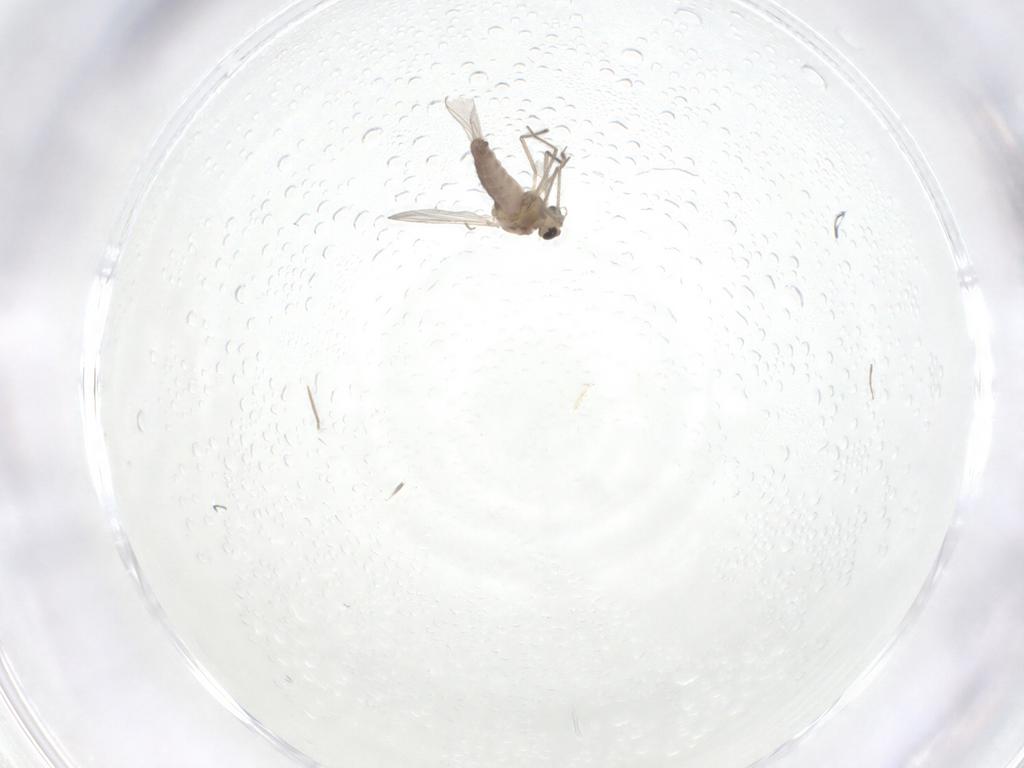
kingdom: Animalia
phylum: Arthropoda
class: Insecta
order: Diptera
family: Chironomidae
